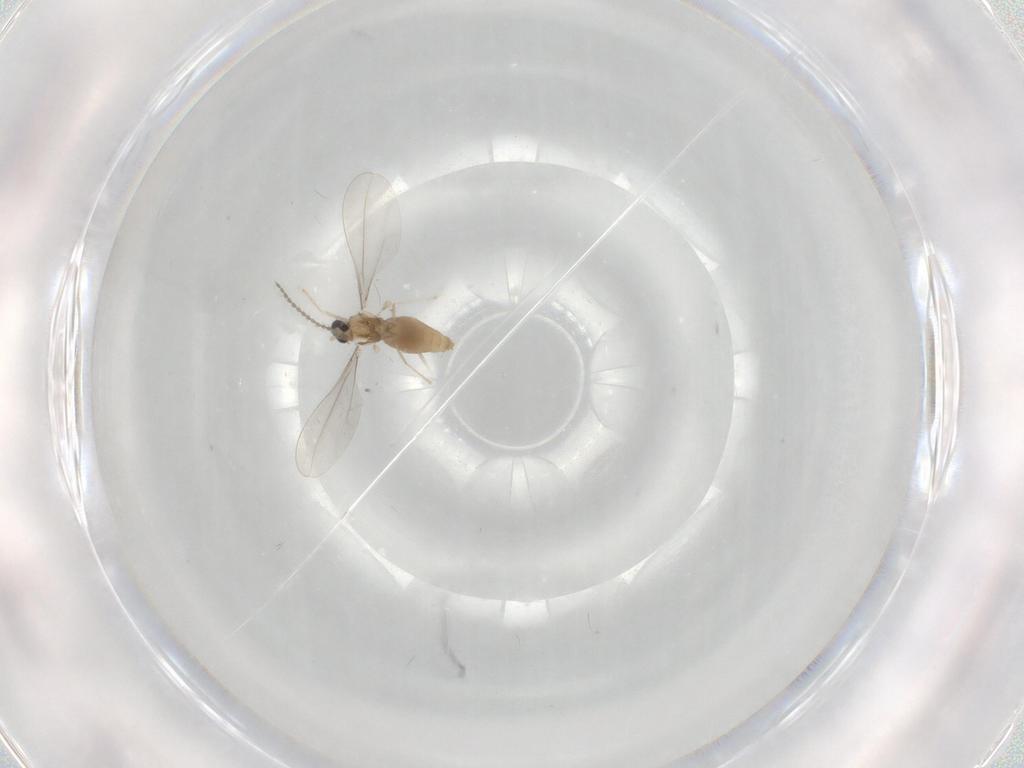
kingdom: Animalia
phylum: Arthropoda
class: Insecta
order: Diptera
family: Cecidomyiidae
